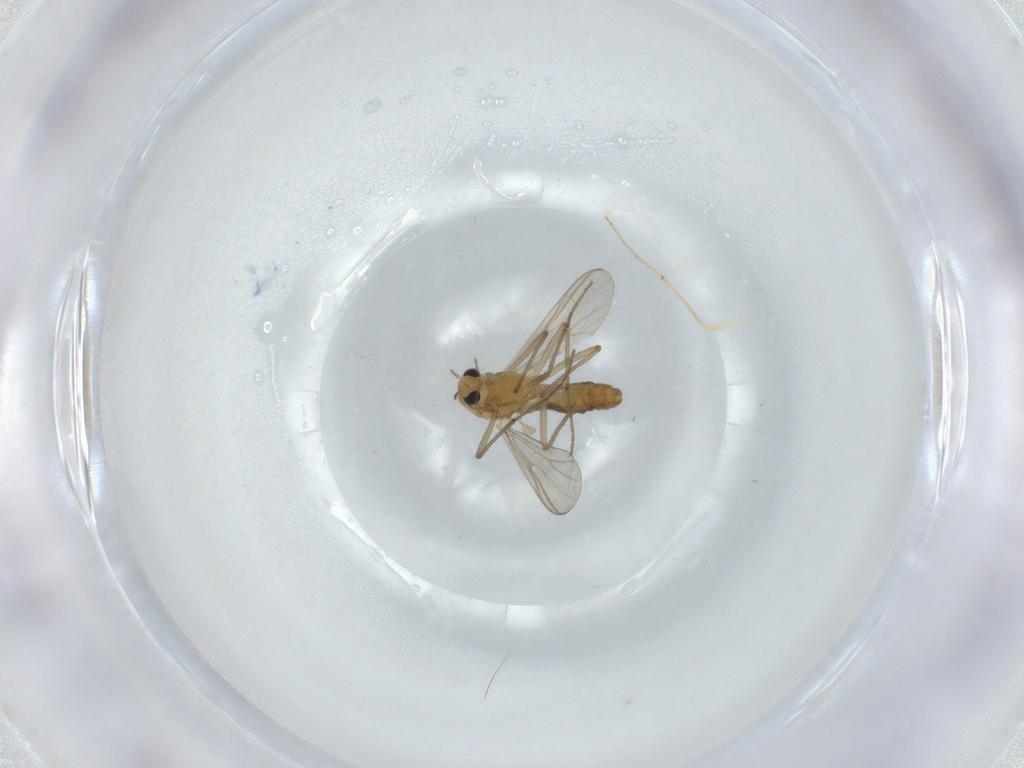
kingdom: Animalia
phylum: Arthropoda
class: Insecta
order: Diptera
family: Chironomidae
